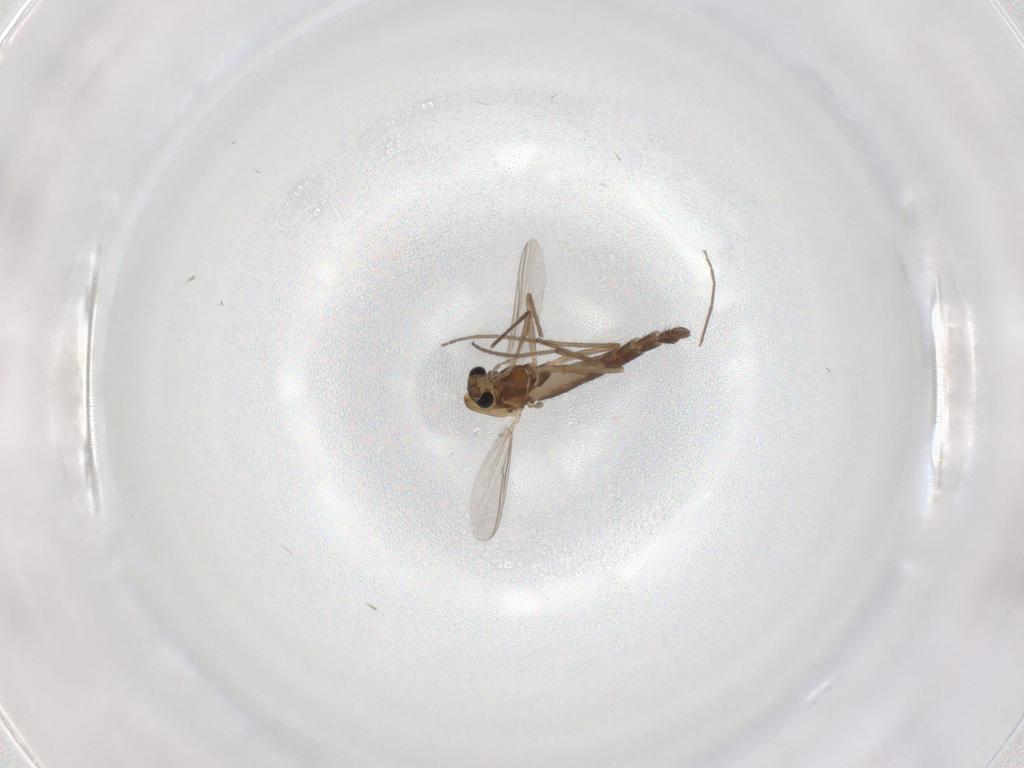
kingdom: Animalia
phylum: Arthropoda
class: Insecta
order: Diptera
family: Chironomidae
